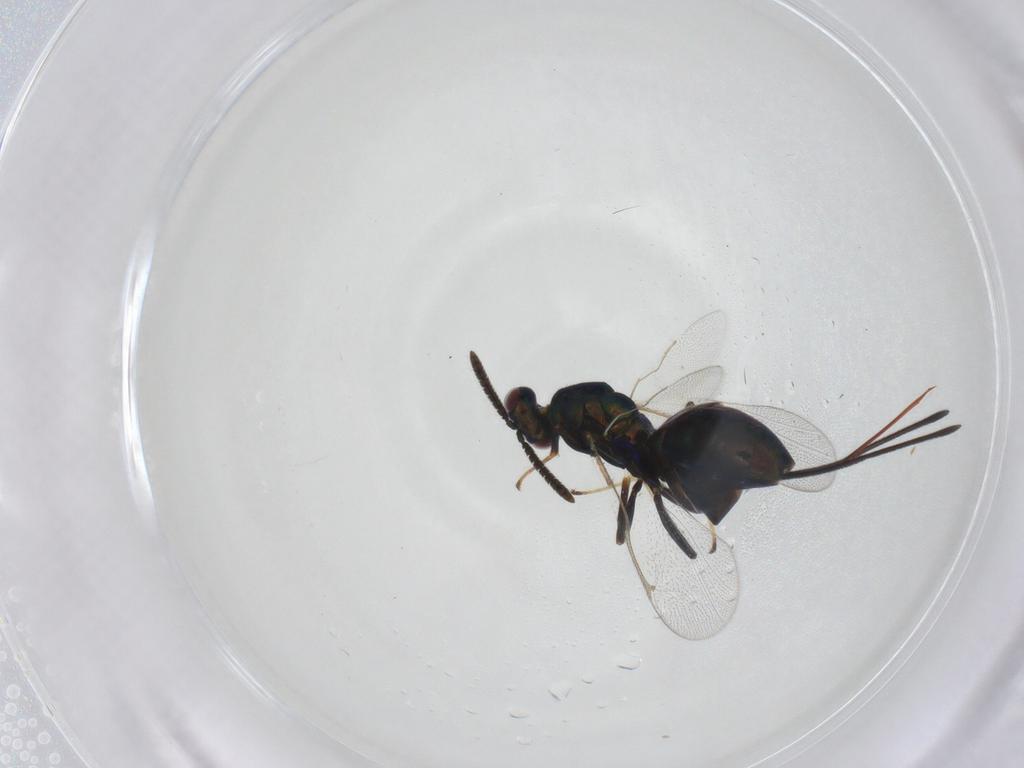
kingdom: Animalia
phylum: Arthropoda
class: Insecta
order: Hymenoptera
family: Torymidae
